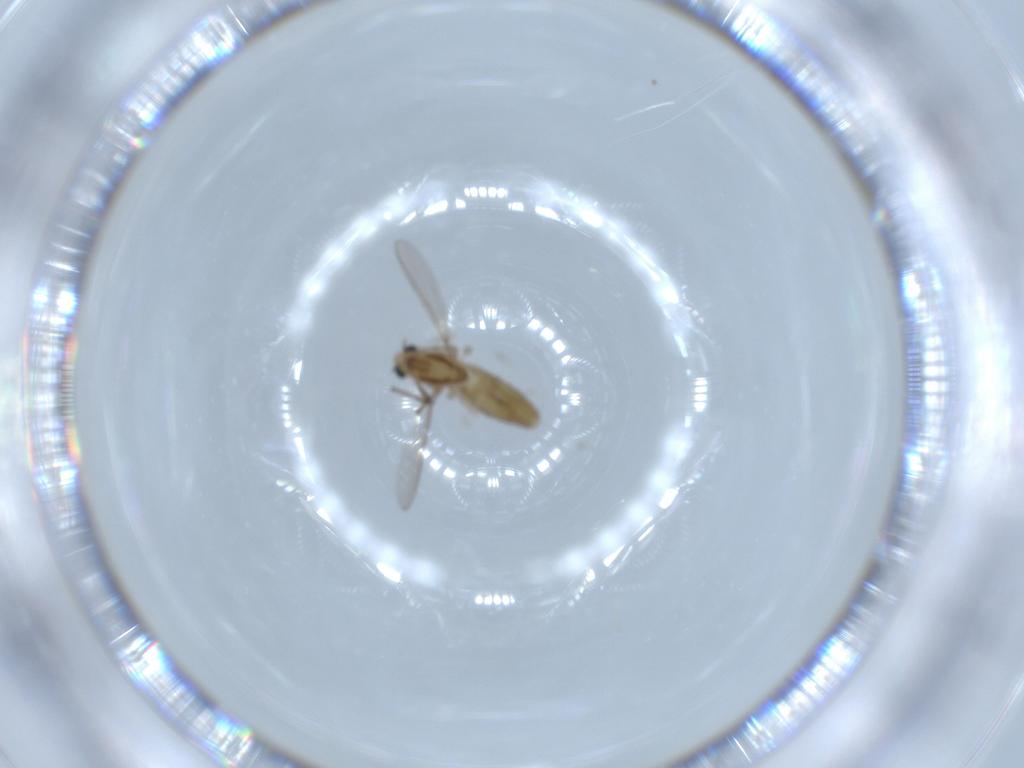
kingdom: Animalia
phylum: Arthropoda
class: Insecta
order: Diptera
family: Chironomidae
